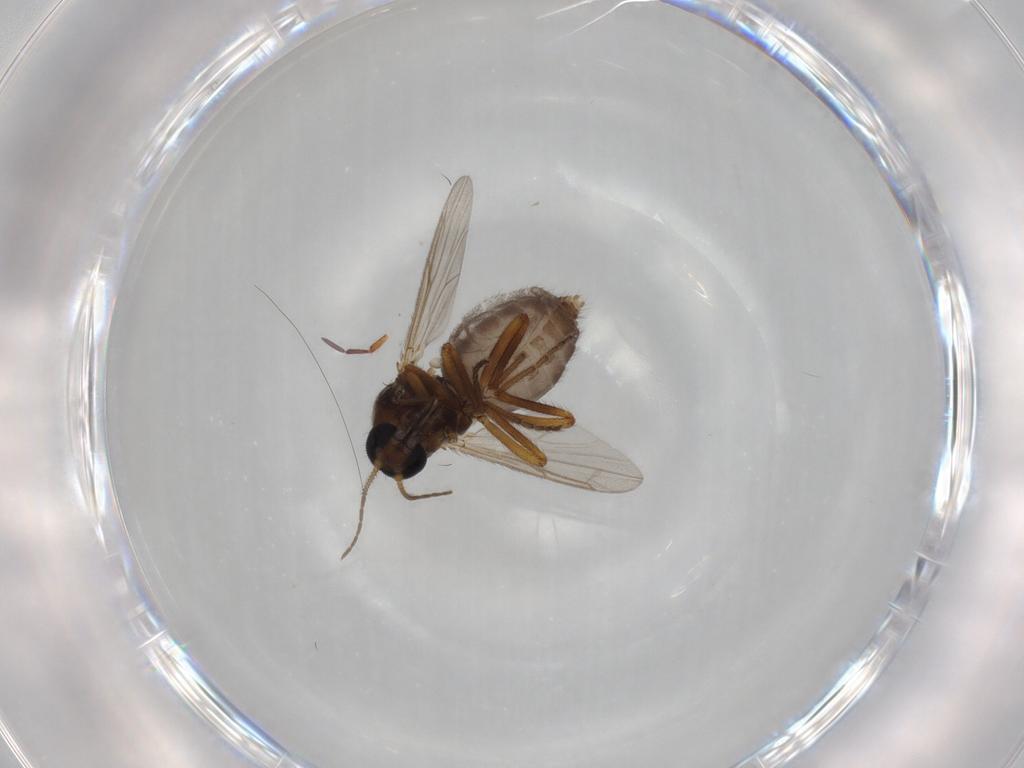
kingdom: Animalia
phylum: Arthropoda
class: Insecta
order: Diptera
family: Ceratopogonidae
